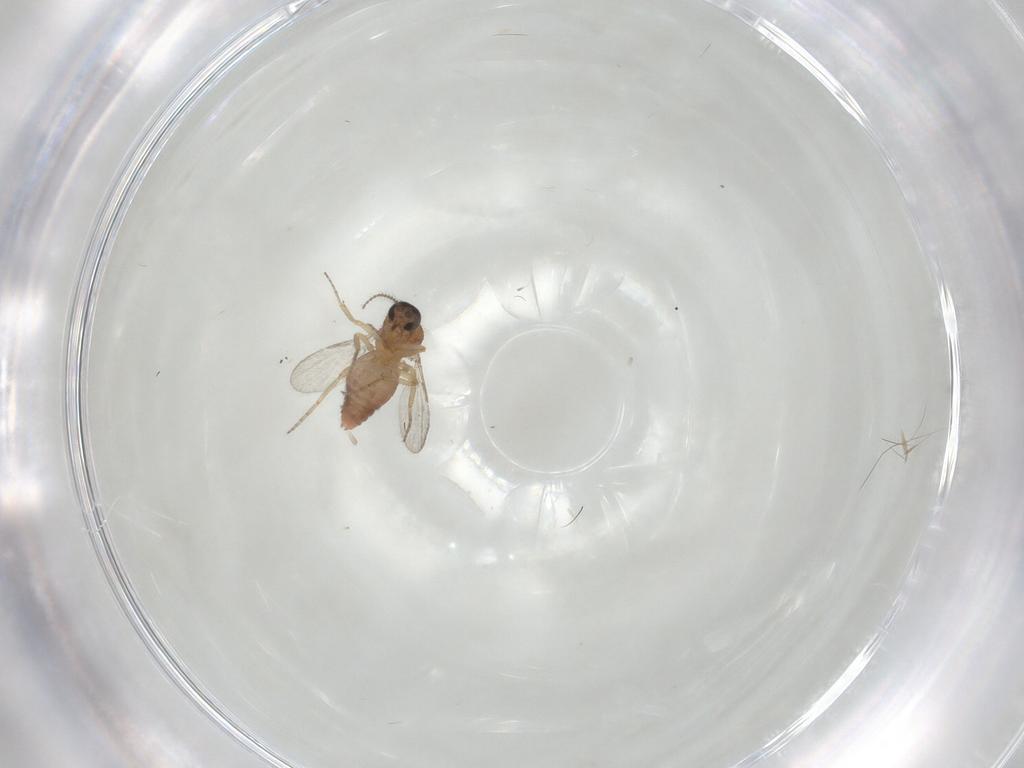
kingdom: Animalia
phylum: Arthropoda
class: Insecta
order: Diptera
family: Ceratopogonidae
